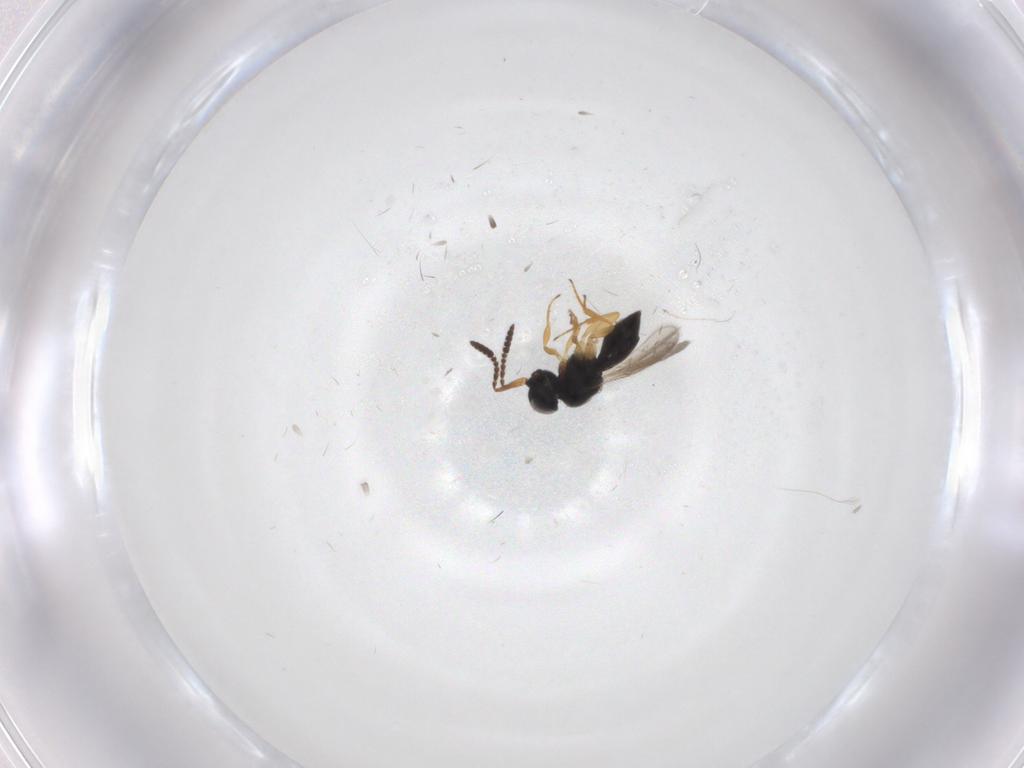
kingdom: Animalia
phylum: Arthropoda
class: Insecta
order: Hymenoptera
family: Scelionidae
